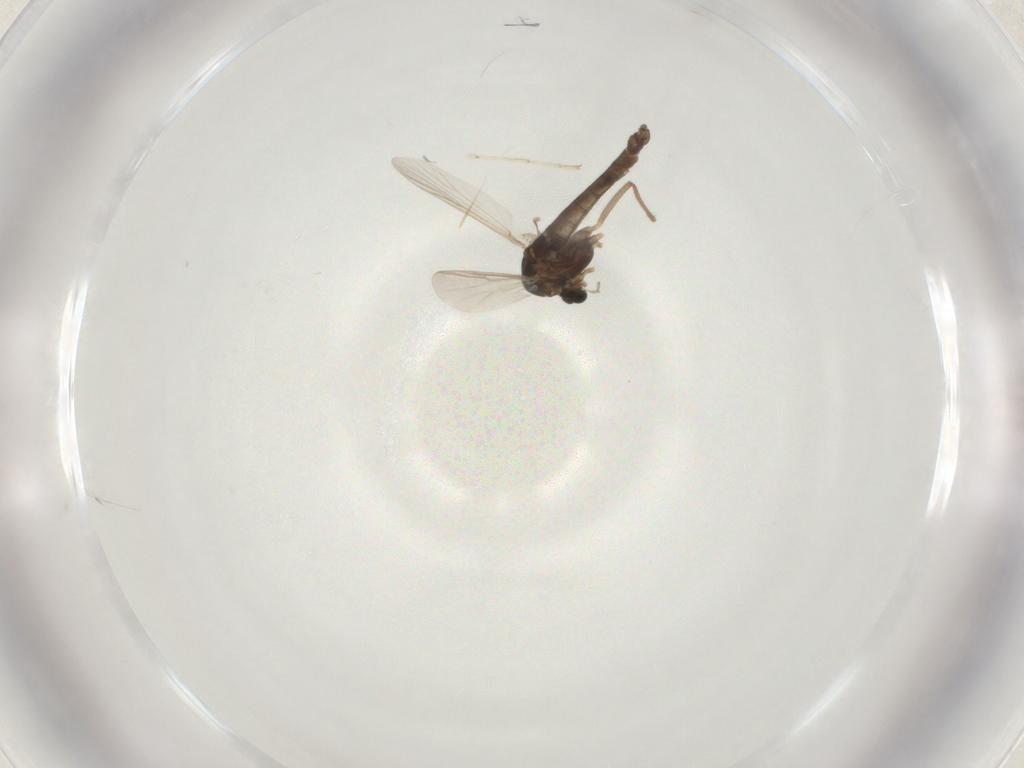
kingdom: Animalia
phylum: Arthropoda
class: Insecta
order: Diptera
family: Chironomidae
